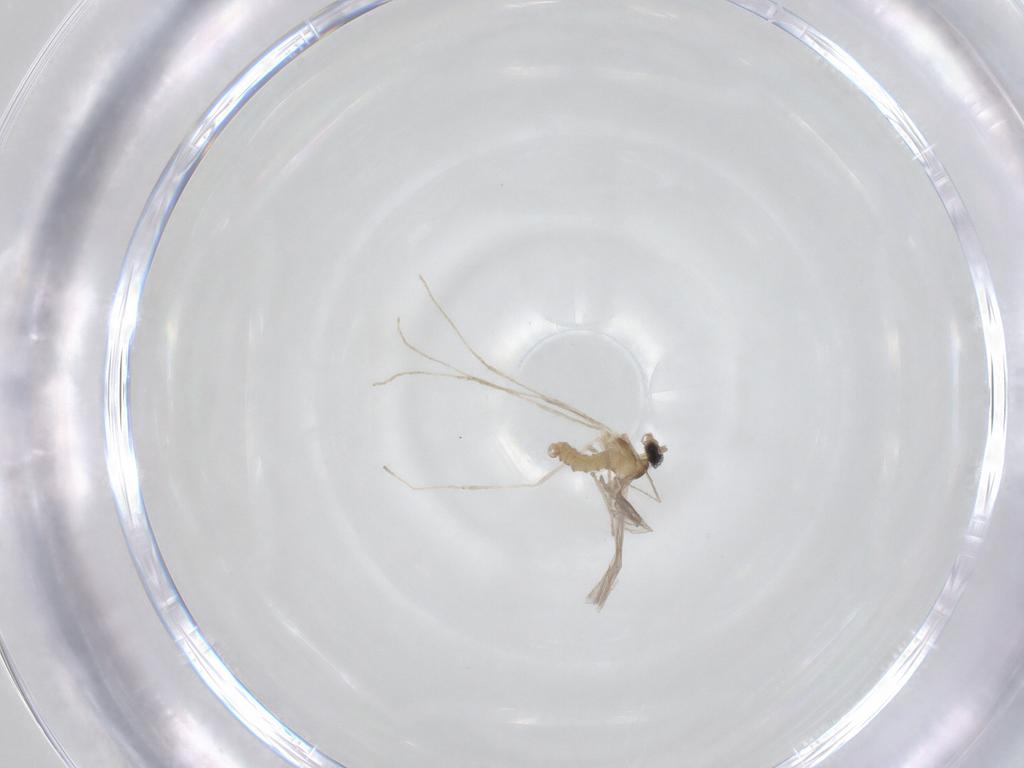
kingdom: Animalia
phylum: Arthropoda
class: Insecta
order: Diptera
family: Cecidomyiidae
